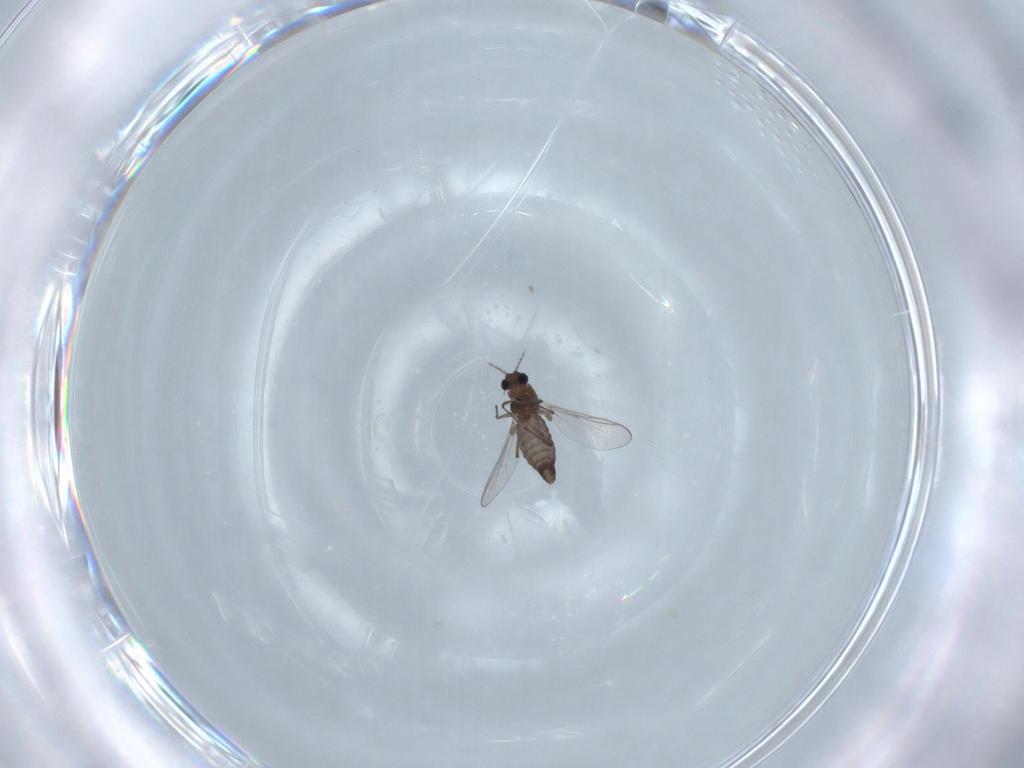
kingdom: Animalia
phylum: Arthropoda
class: Insecta
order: Diptera
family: Chironomidae
